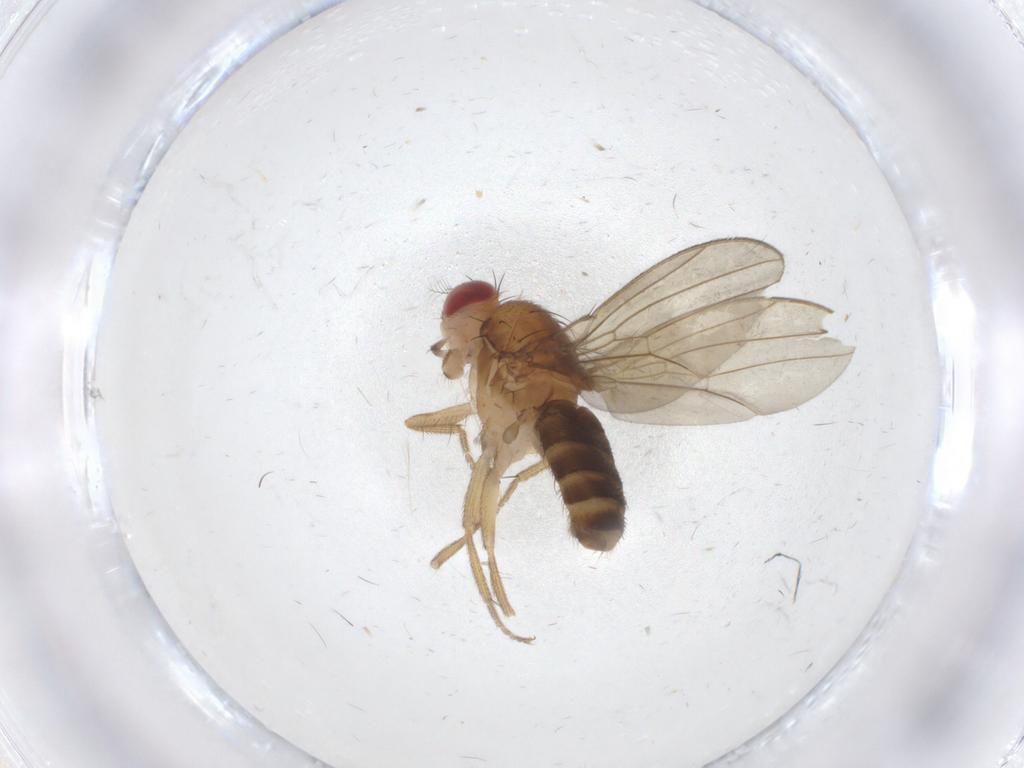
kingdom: Animalia
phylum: Arthropoda
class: Insecta
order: Diptera
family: Drosophilidae
